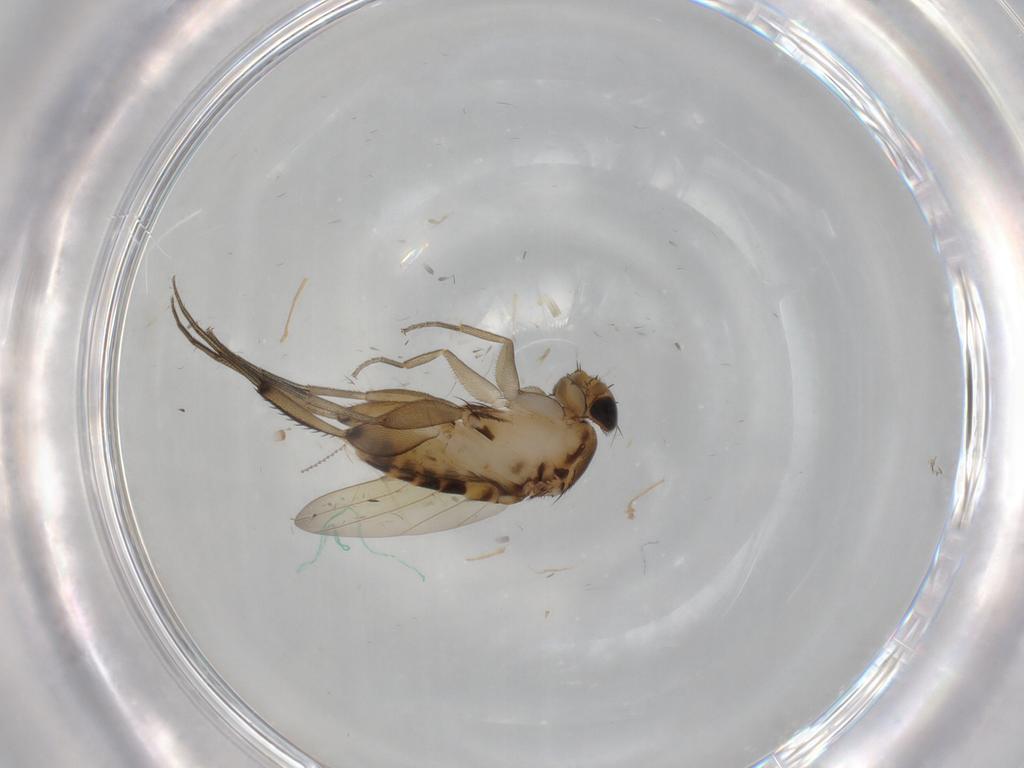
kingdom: Animalia
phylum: Arthropoda
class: Insecta
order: Diptera
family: Phoridae
